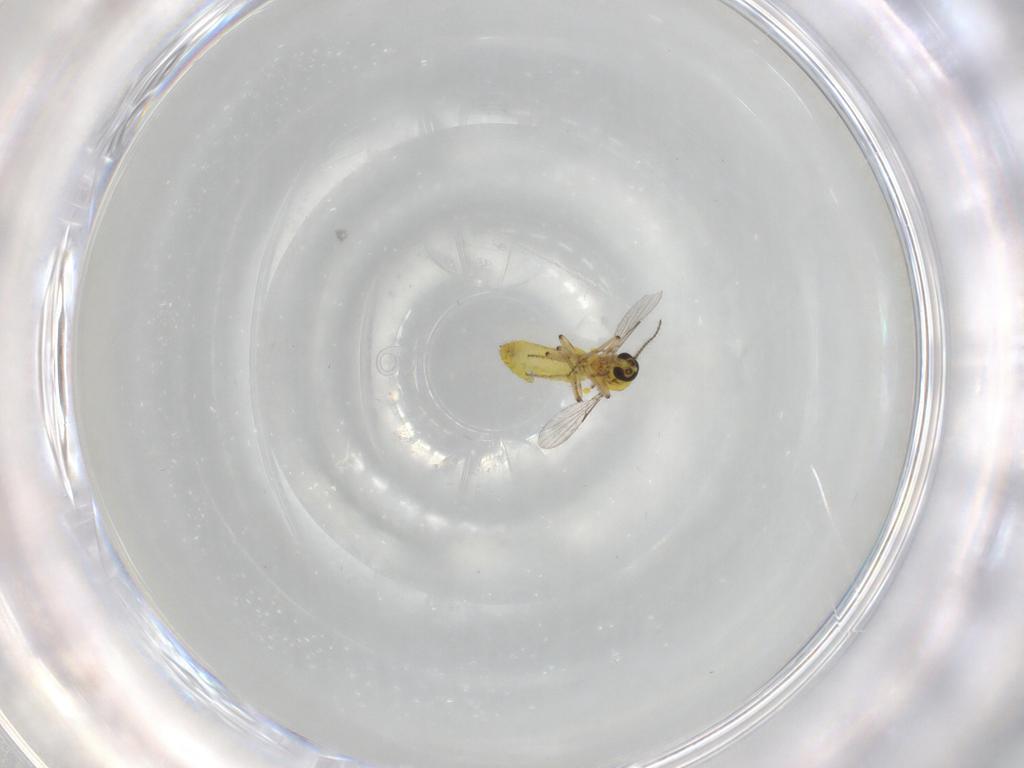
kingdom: Animalia
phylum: Arthropoda
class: Insecta
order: Diptera
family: Ceratopogonidae
